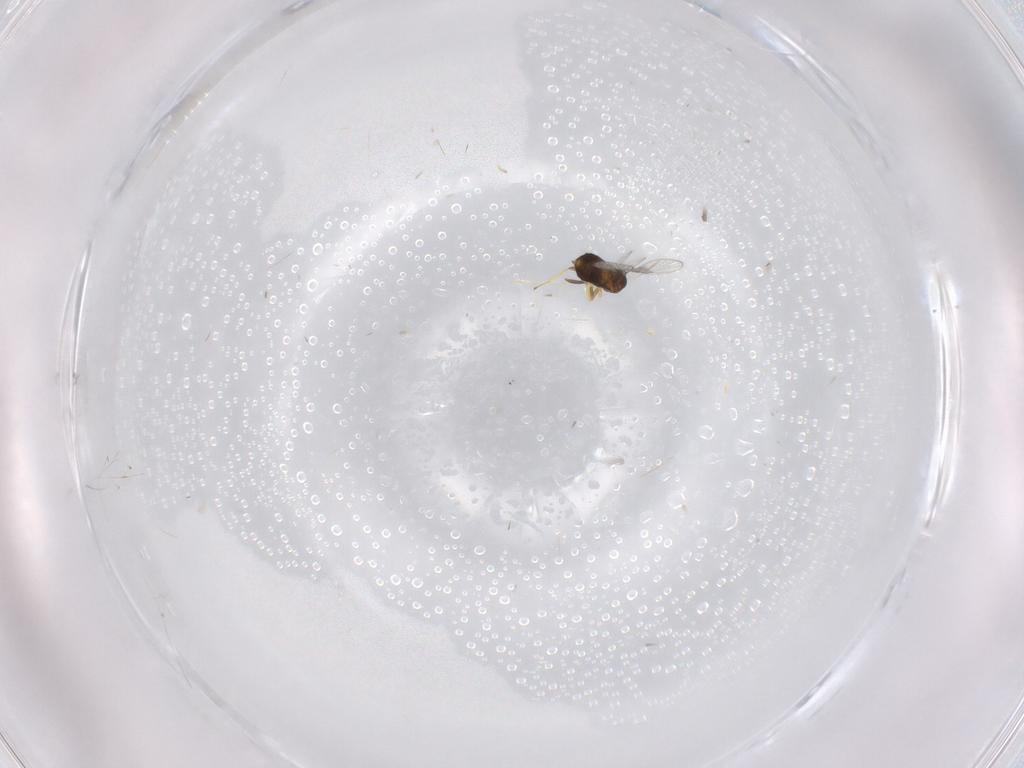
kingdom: Animalia
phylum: Arthropoda
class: Insecta
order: Hymenoptera
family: Trichogrammatidae
